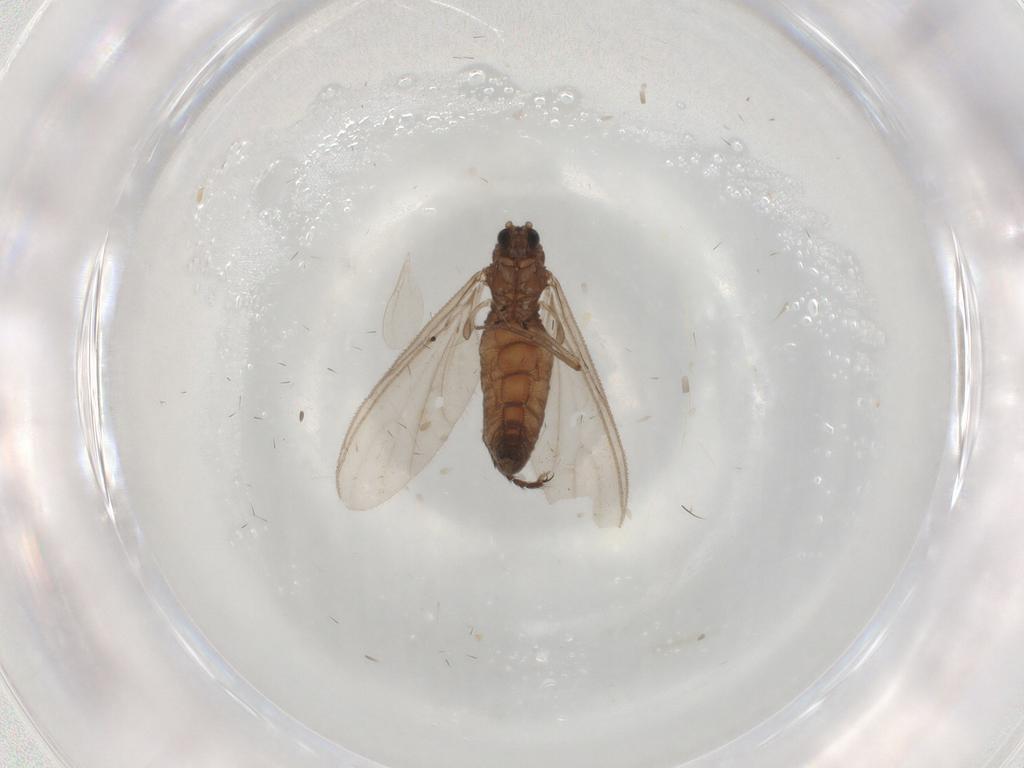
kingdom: Animalia
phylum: Arthropoda
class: Insecta
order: Diptera
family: Sciaridae
